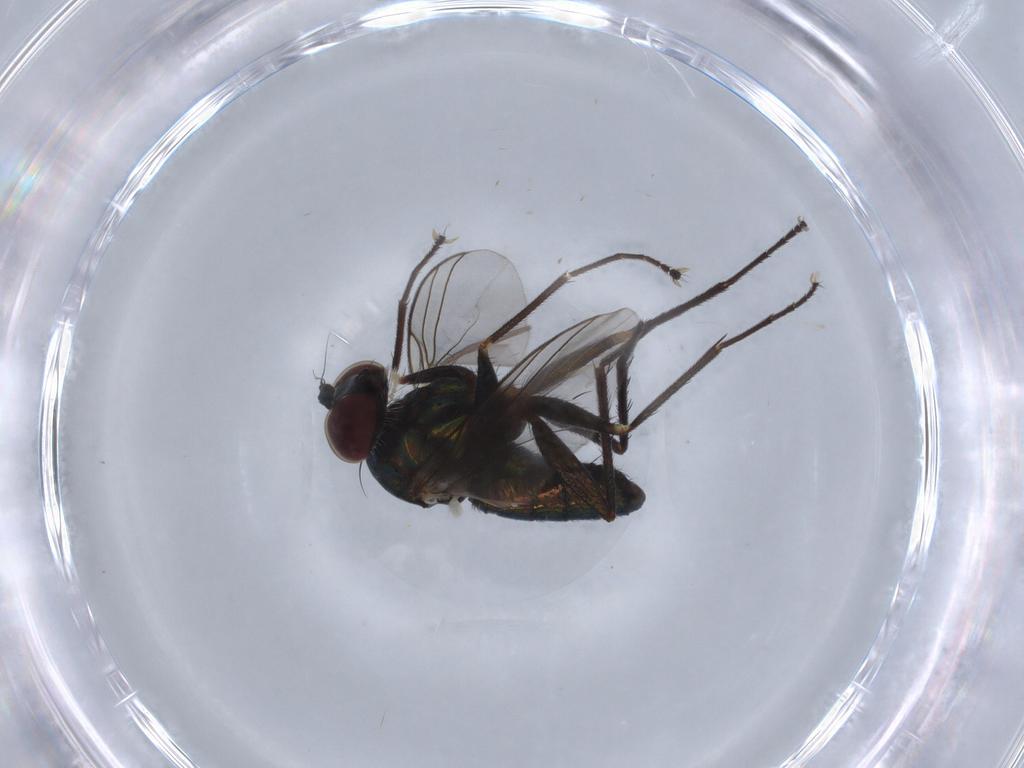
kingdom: Animalia
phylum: Arthropoda
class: Insecta
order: Diptera
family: Dolichopodidae
